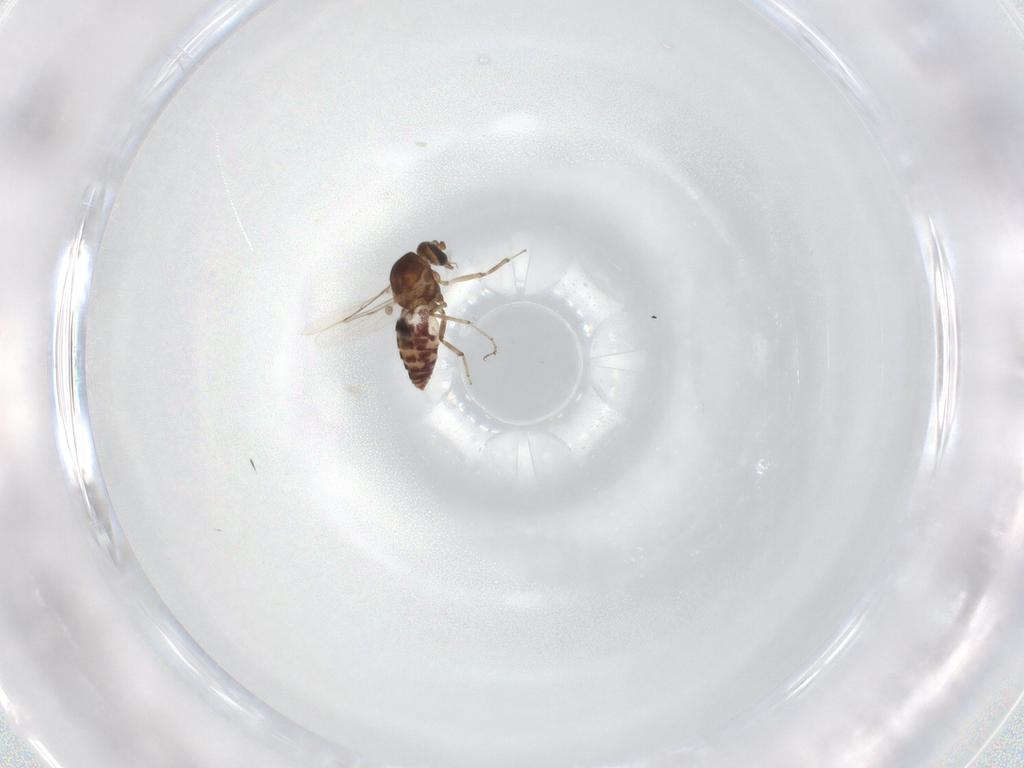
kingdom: Animalia
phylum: Arthropoda
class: Insecta
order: Diptera
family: Ceratopogonidae
